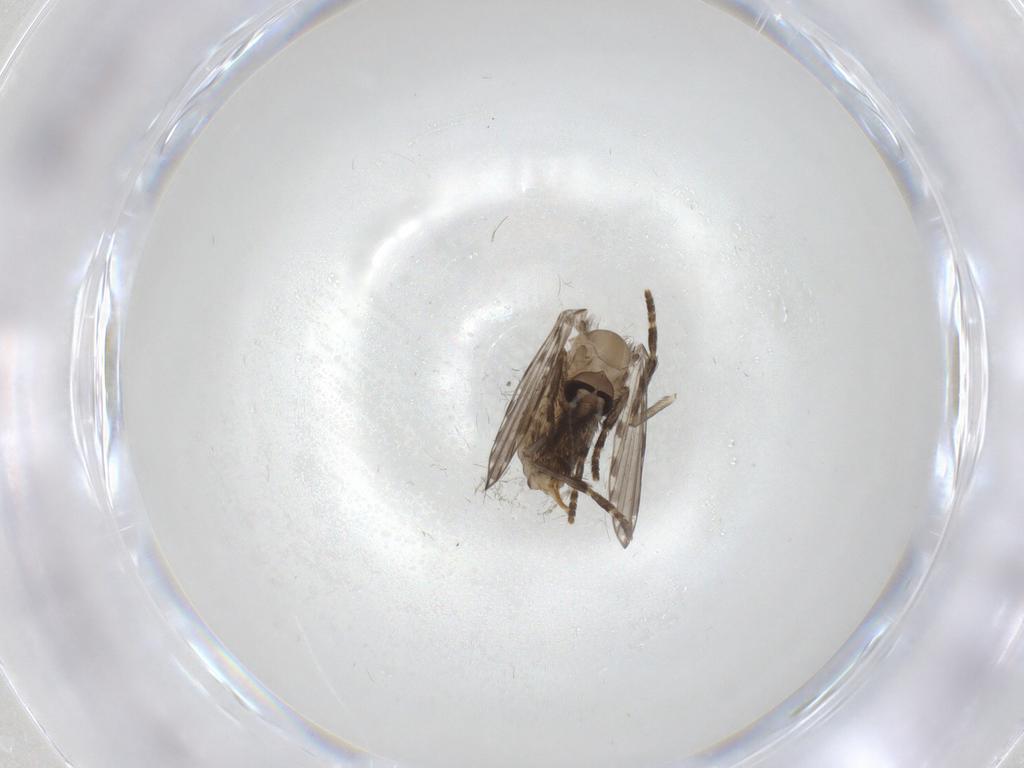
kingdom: Animalia
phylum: Arthropoda
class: Insecta
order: Diptera
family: Psychodidae
